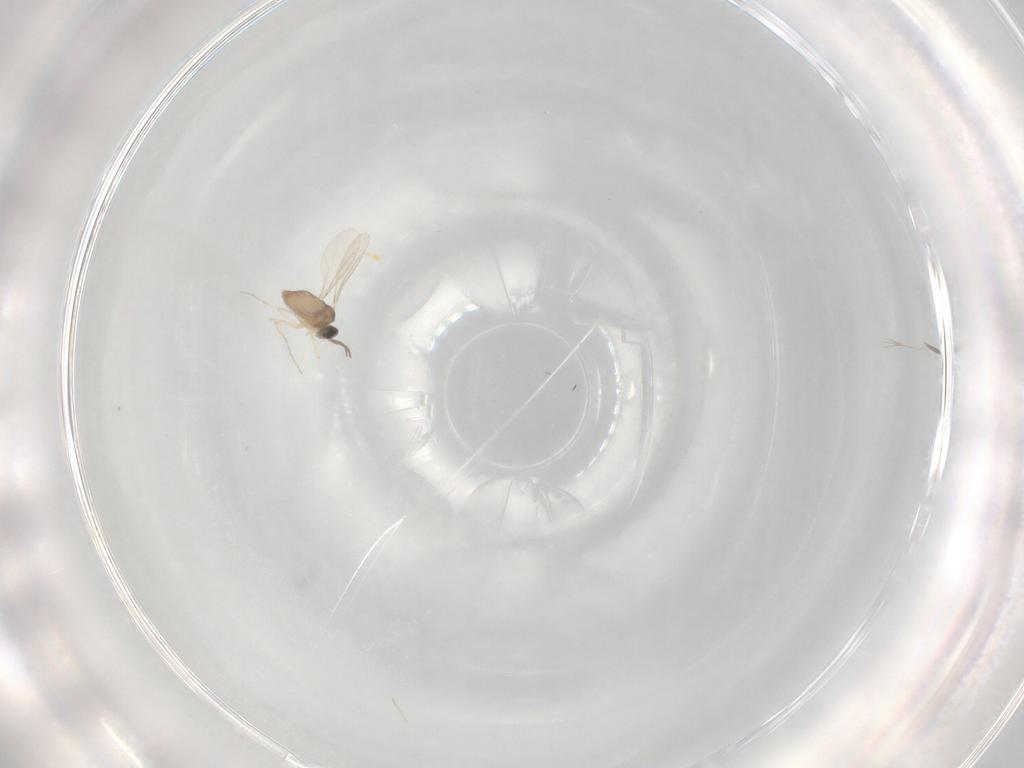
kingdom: Animalia
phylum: Arthropoda
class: Insecta
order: Diptera
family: Cecidomyiidae
